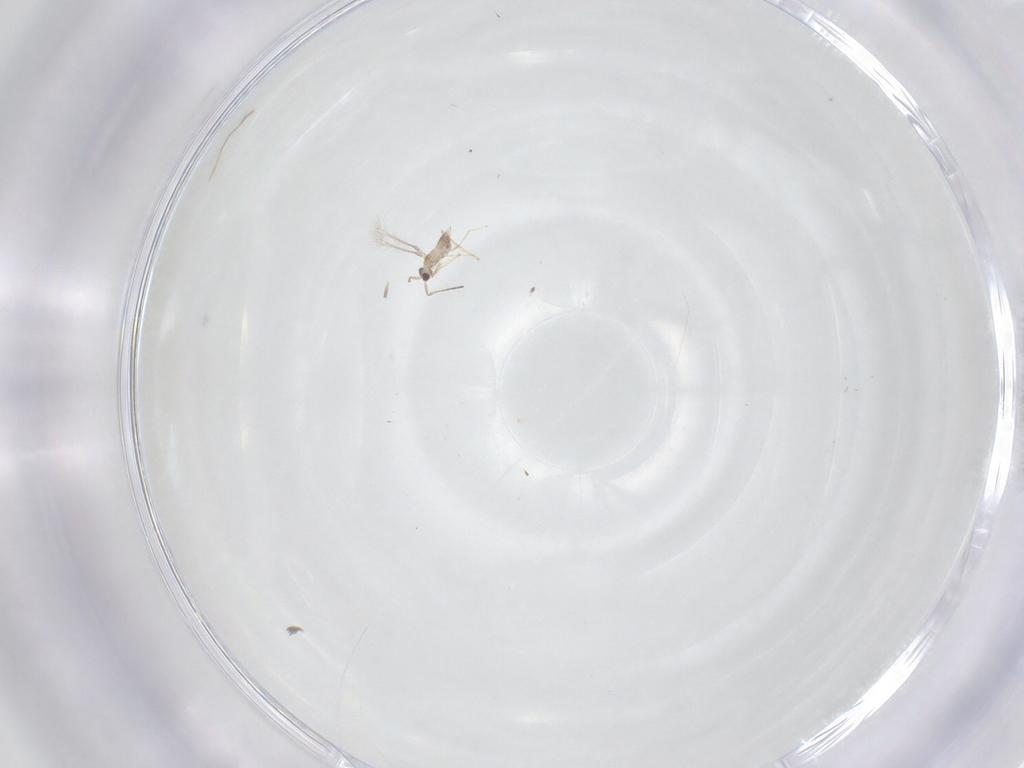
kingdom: Animalia
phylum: Arthropoda
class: Insecta
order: Hymenoptera
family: Mymaridae
